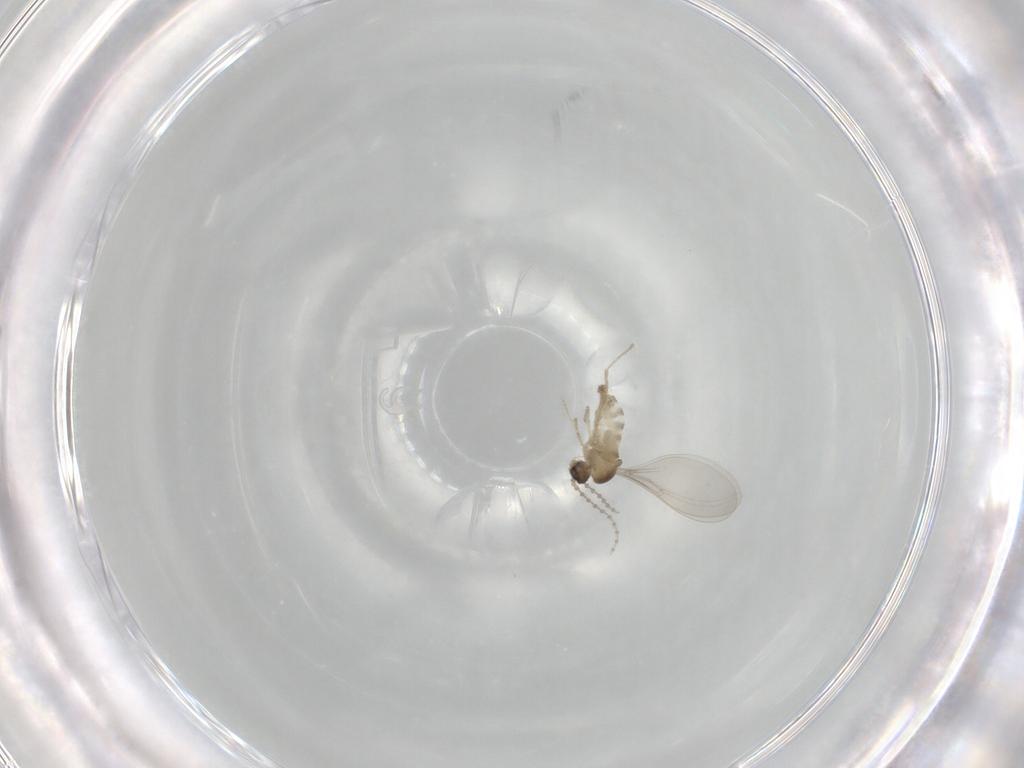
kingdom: Animalia
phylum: Arthropoda
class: Insecta
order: Diptera
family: Cecidomyiidae
